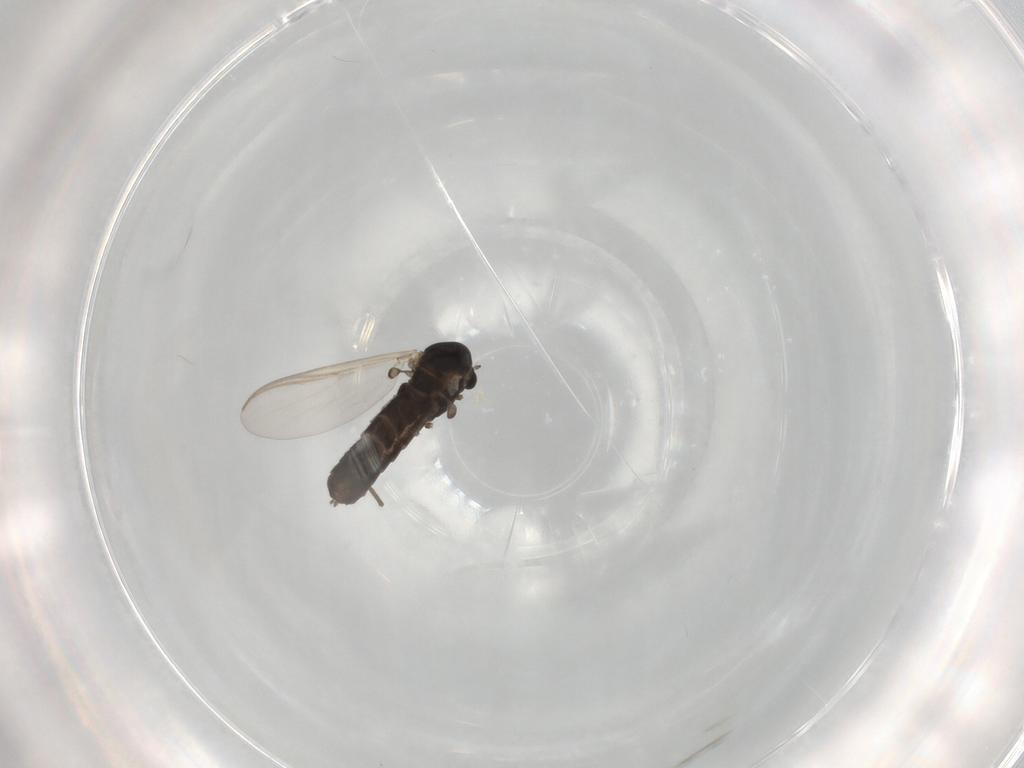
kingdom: Animalia
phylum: Arthropoda
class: Insecta
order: Diptera
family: Chironomidae
